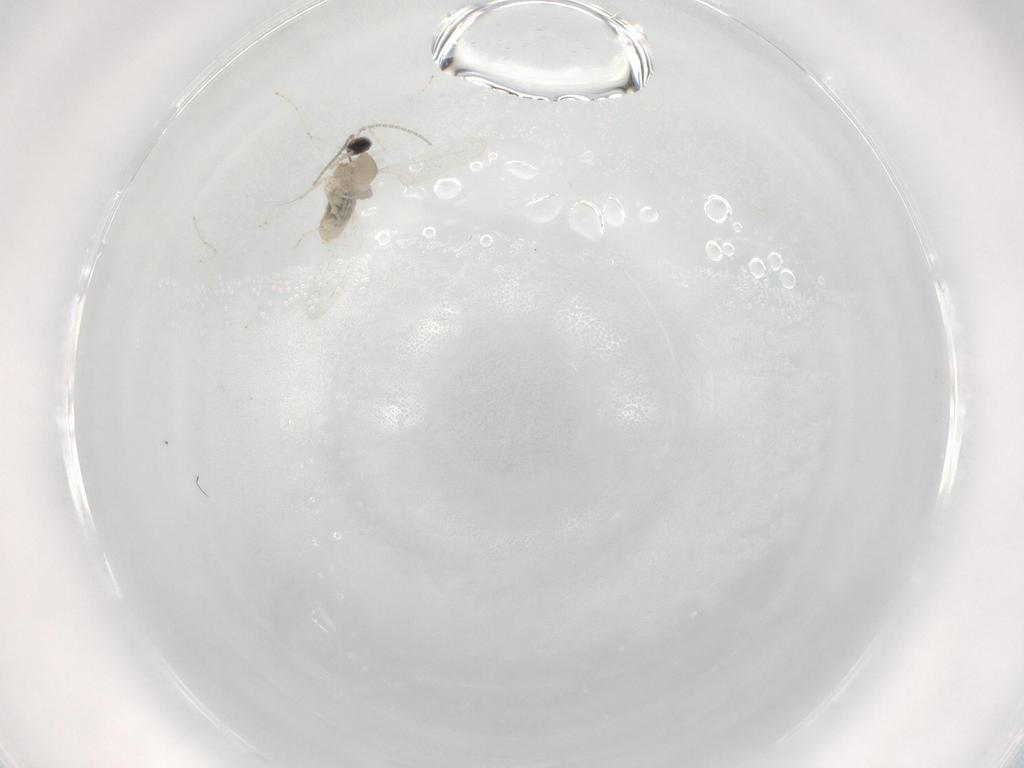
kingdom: Animalia
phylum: Arthropoda
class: Insecta
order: Diptera
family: Cecidomyiidae
